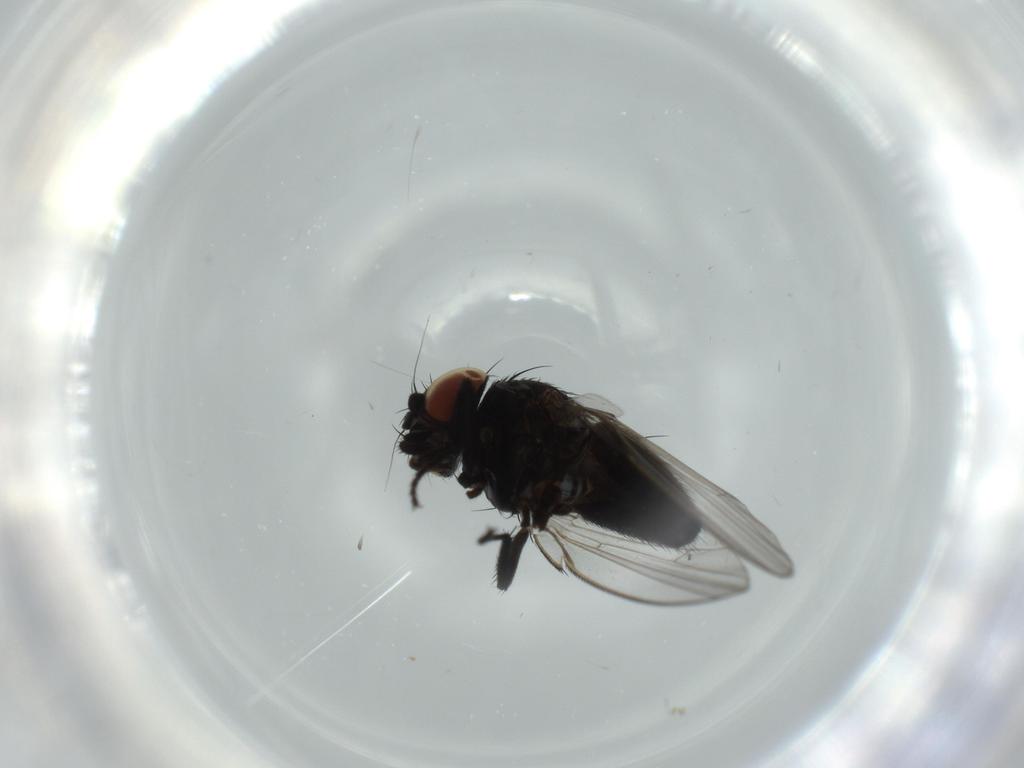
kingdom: Animalia
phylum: Arthropoda
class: Insecta
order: Diptera
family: Milichiidae
